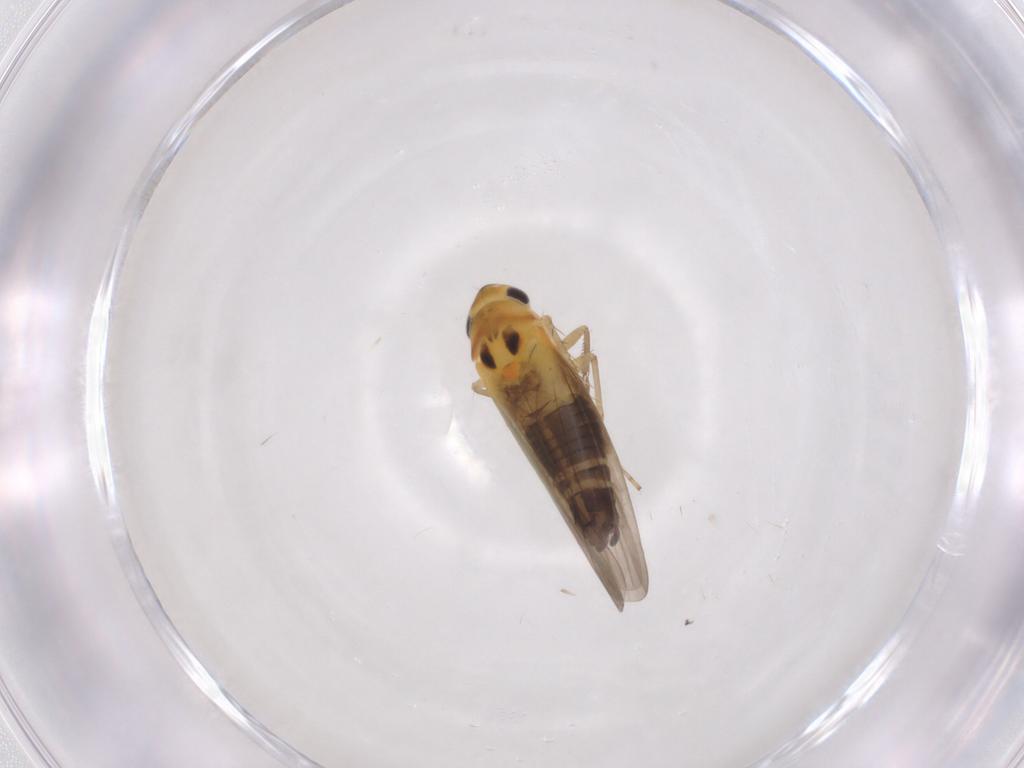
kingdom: Animalia
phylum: Arthropoda
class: Insecta
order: Hemiptera
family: Cicadellidae
